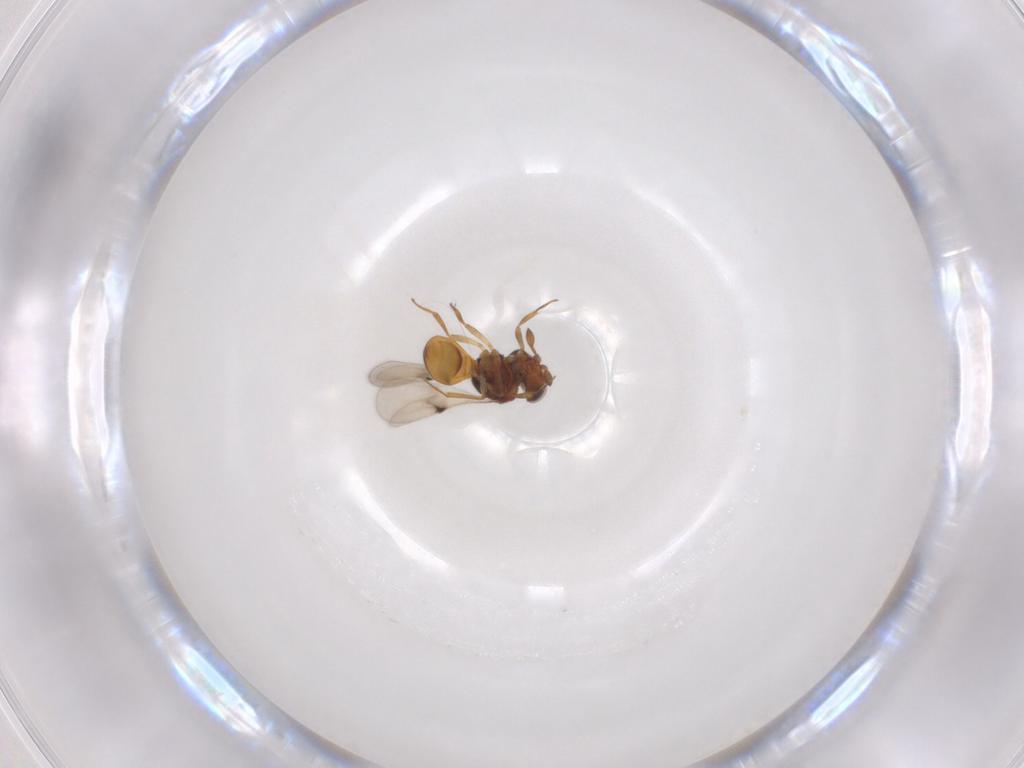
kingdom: Animalia
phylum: Arthropoda
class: Insecta
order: Hymenoptera
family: Scelionidae
